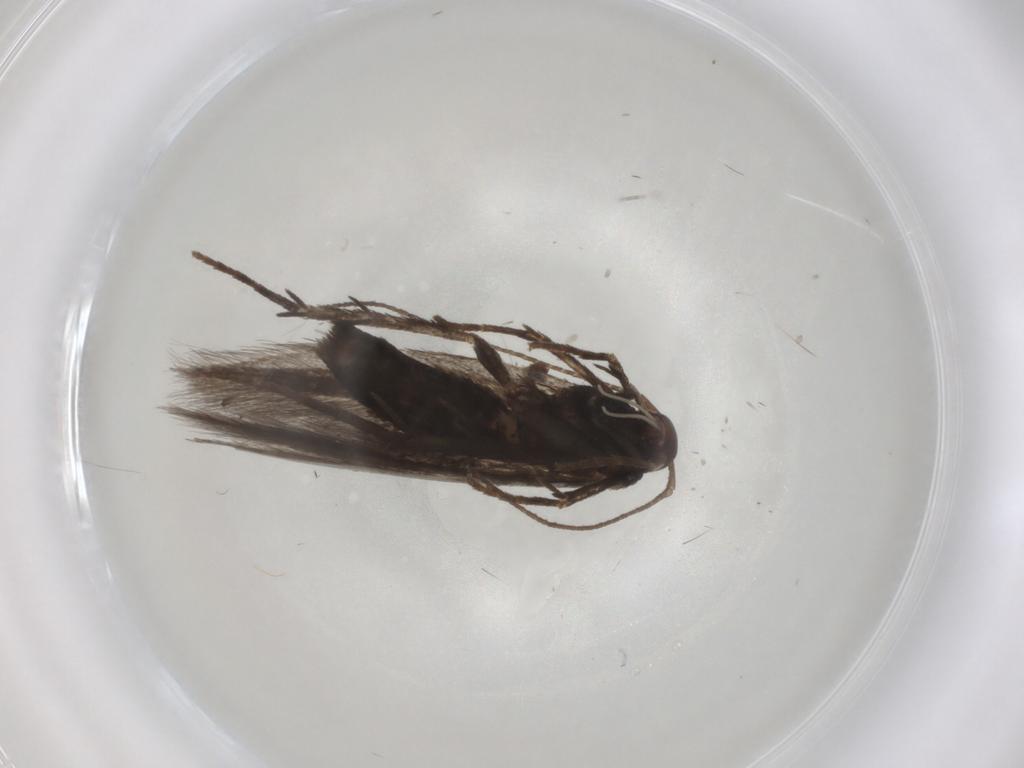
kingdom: Animalia
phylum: Arthropoda
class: Insecta
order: Lepidoptera
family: Gelechiidae
